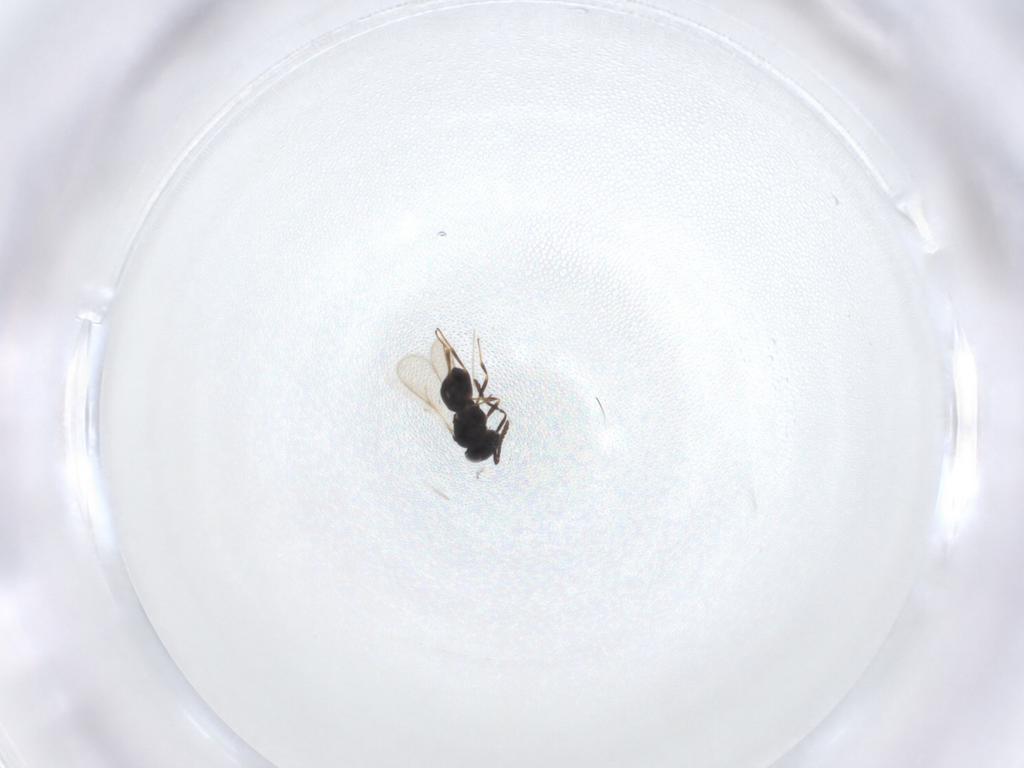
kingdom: Animalia
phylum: Arthropoda
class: Insecta
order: Hymenoptera
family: Scelionidae
